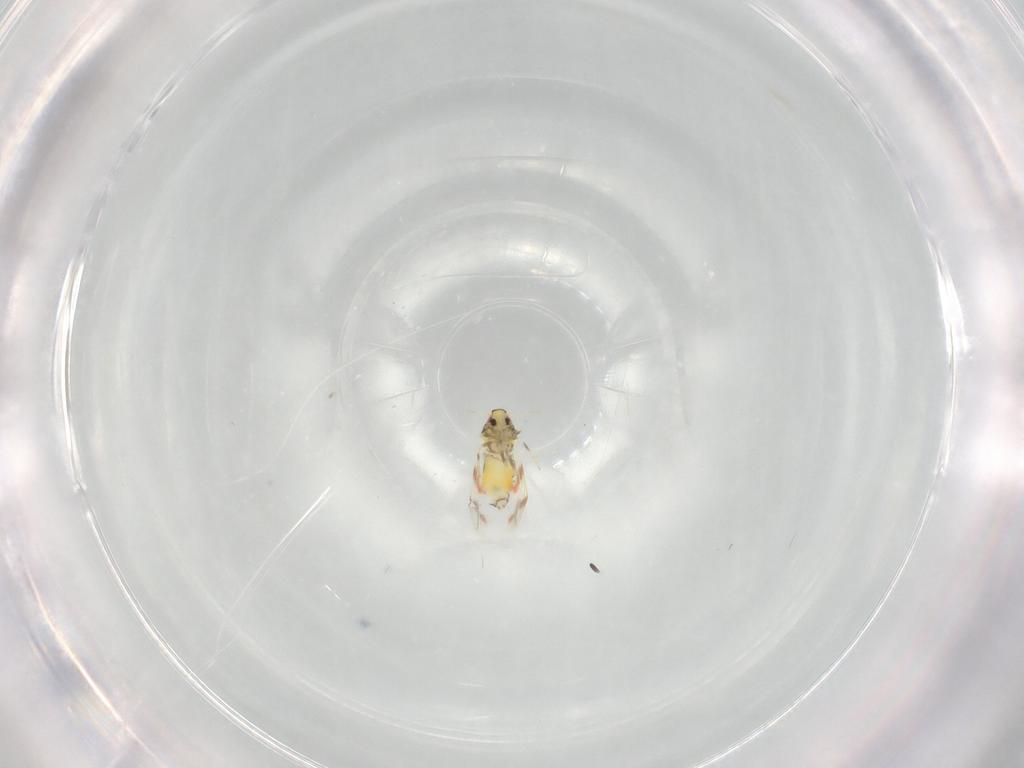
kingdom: Animalia
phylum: Arthropoda
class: Insecta
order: Hemiptera
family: Aleyrodidae
